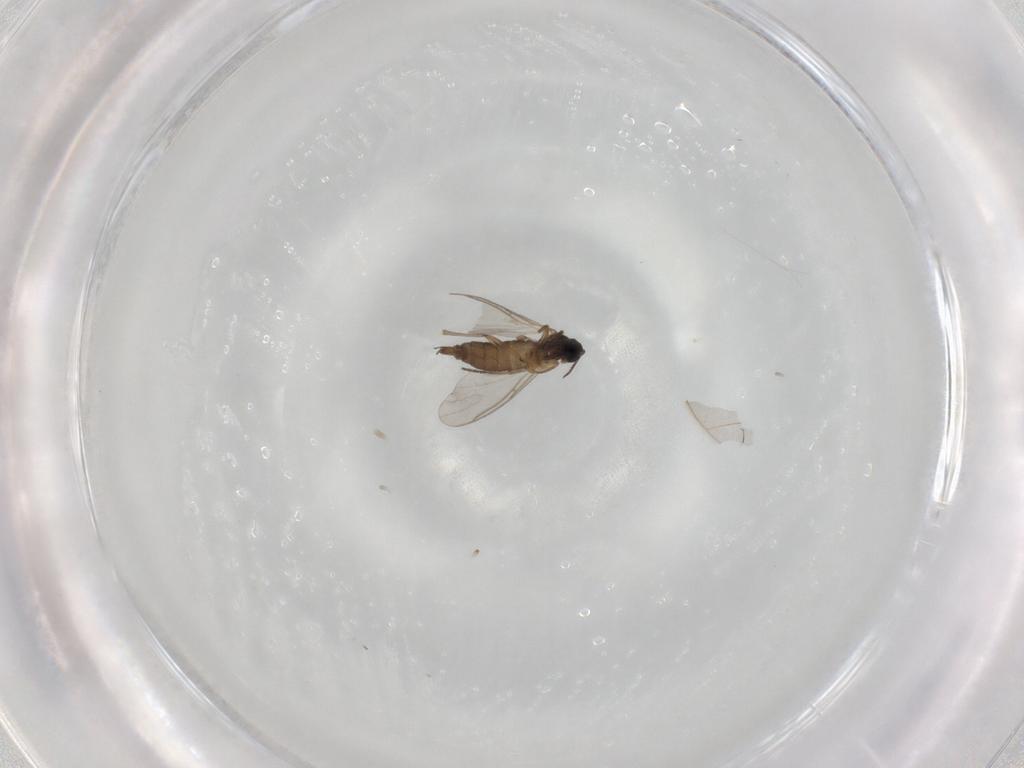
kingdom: Animalia
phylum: Arthropoda
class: Insecta
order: Diptera
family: Sciaridae
